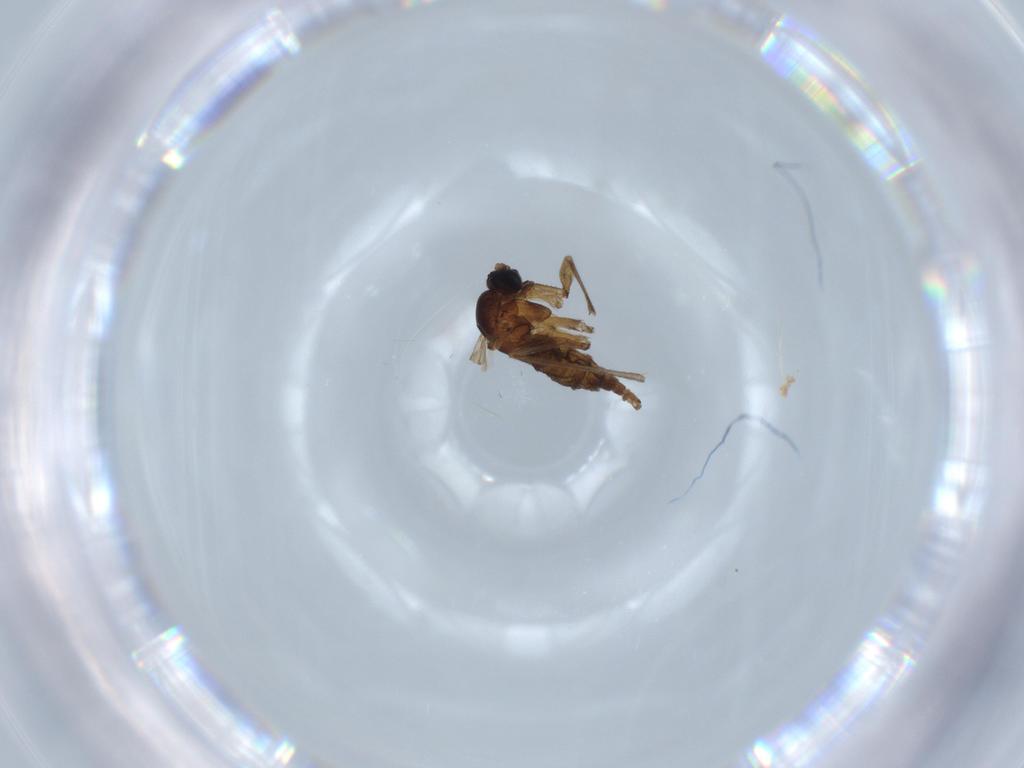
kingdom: Animalia
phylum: Arthropoda
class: Insecta
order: Diptera
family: Sciaridae
